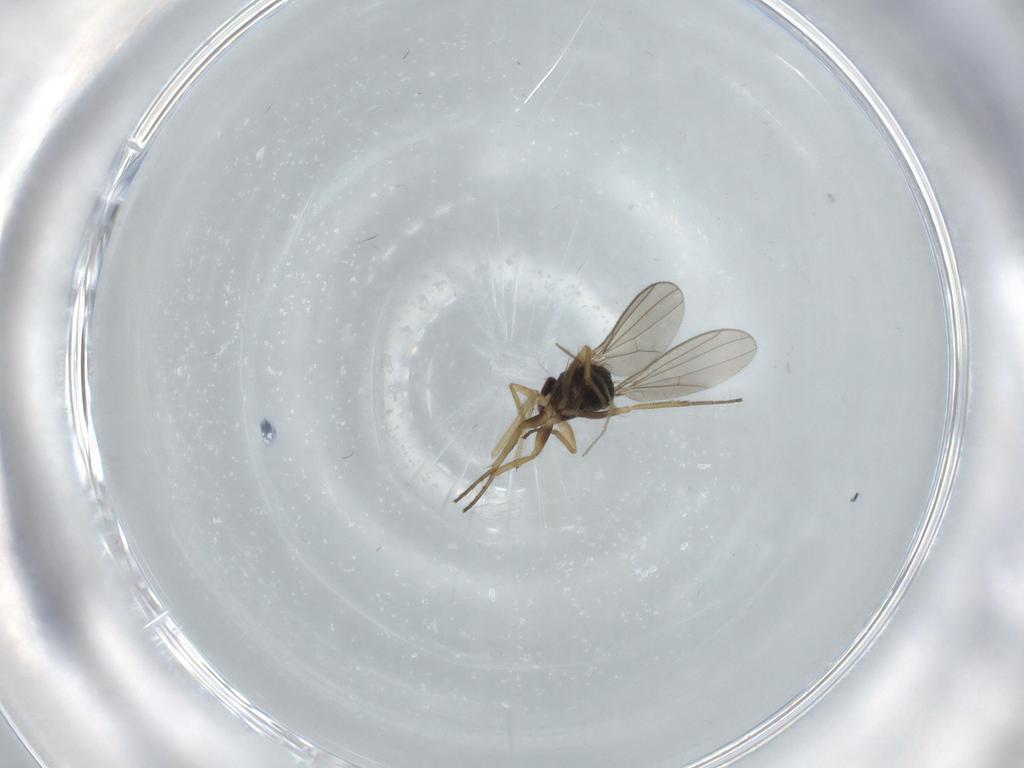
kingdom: Animalia
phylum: Arthropoda
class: Insecta
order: Diptera
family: Dolichopodidae
